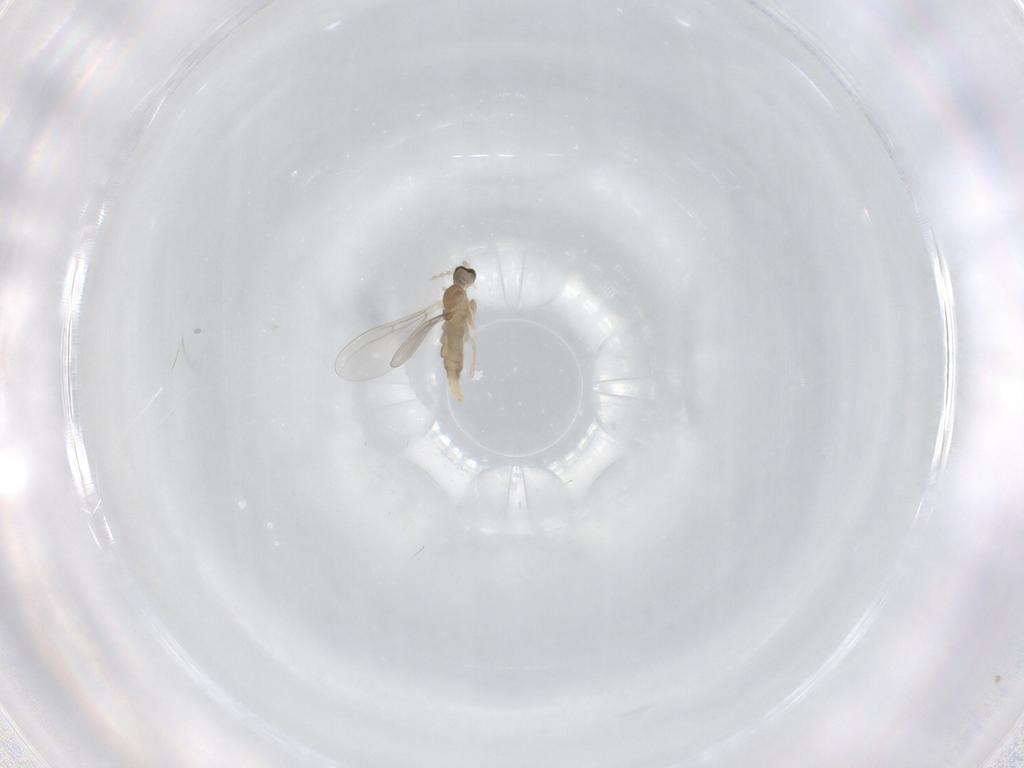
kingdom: Animalia
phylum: Arthropoda
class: Insecta
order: Diptera
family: Cecidomyiidae
